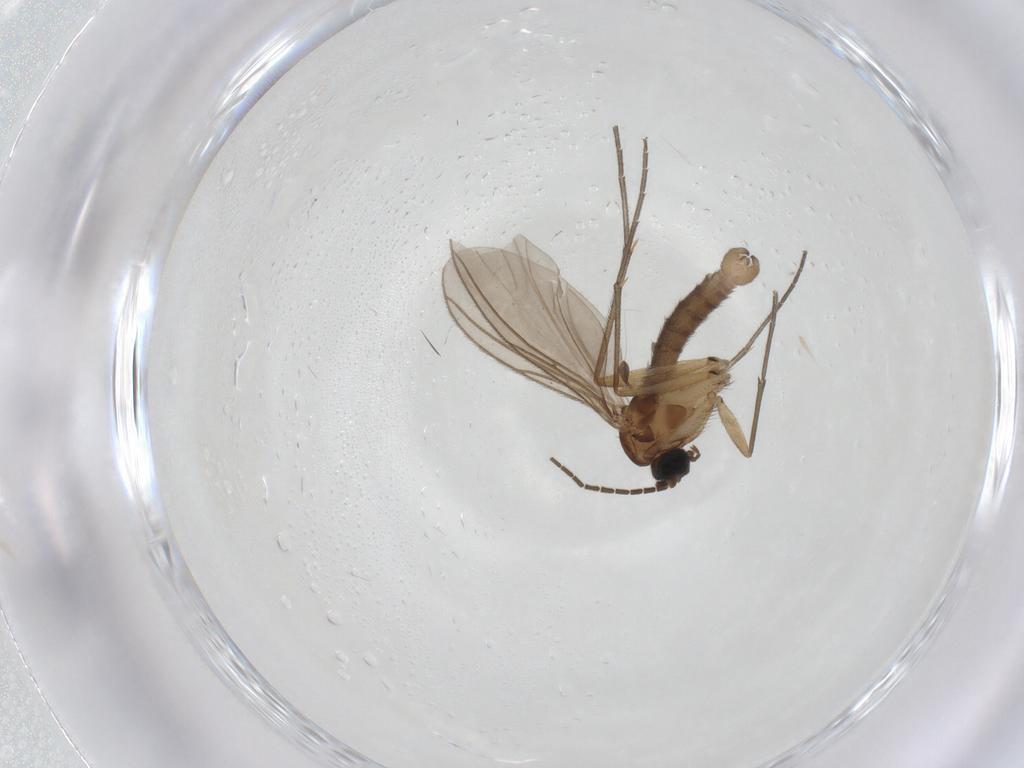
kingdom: Animalia
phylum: Arthropoda
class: Insecta
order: Diptera
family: Sciaridae
